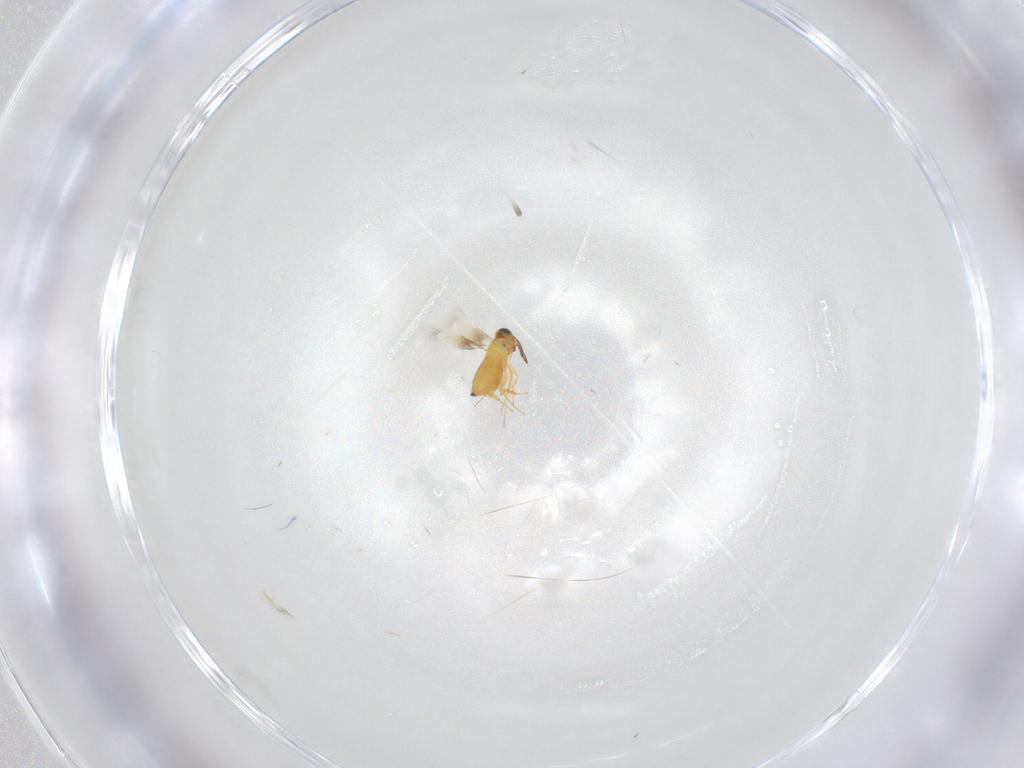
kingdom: Animalia
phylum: Arthropoda
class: Insecta
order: Hymenoptera
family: Signiphoridae
